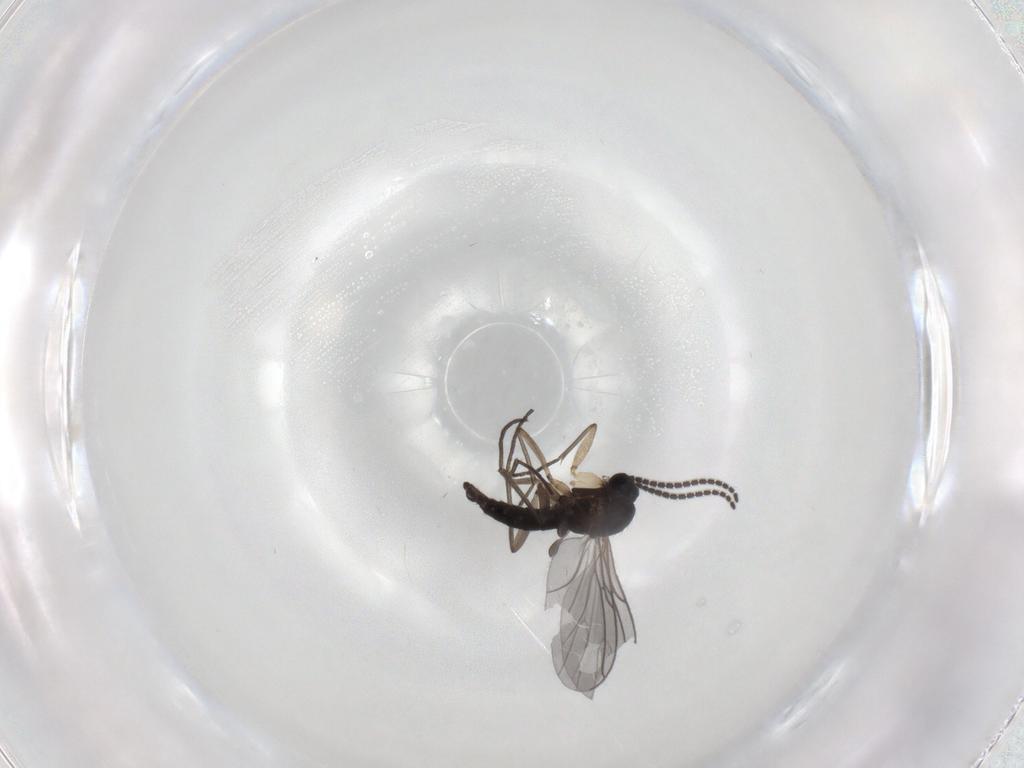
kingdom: Animalia
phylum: Arthropoda
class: Insecta
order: Diptera
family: Sciaridae
